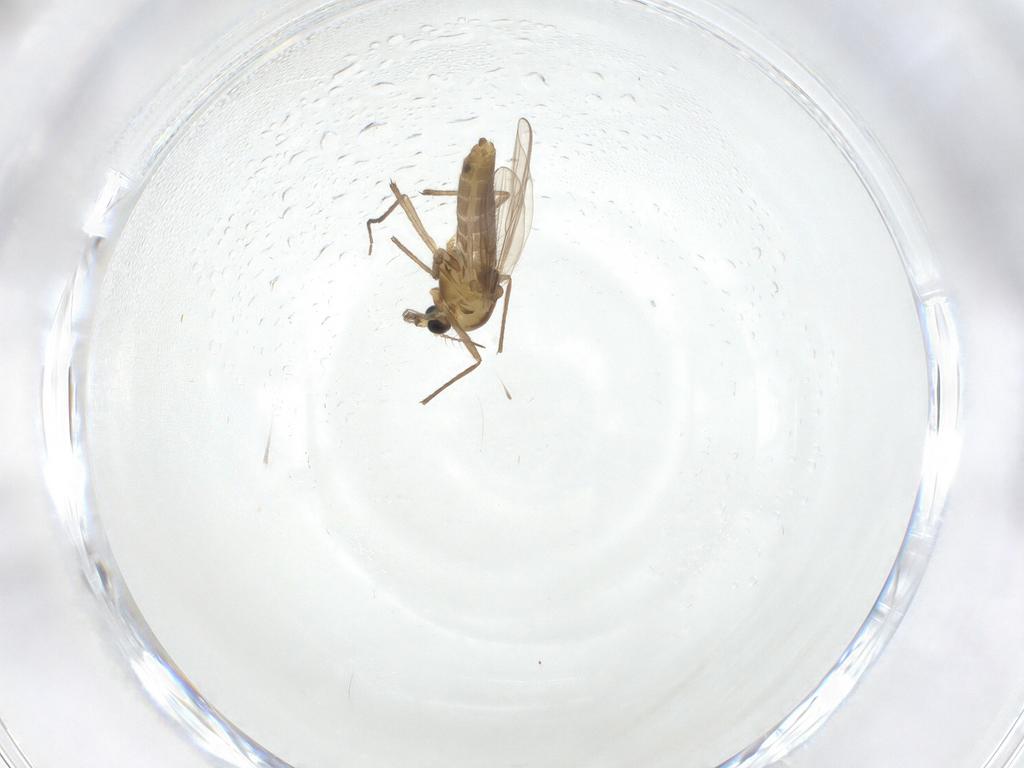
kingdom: Animalia
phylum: Arthropoda
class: Insecta
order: Diptera
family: Chironomidae
